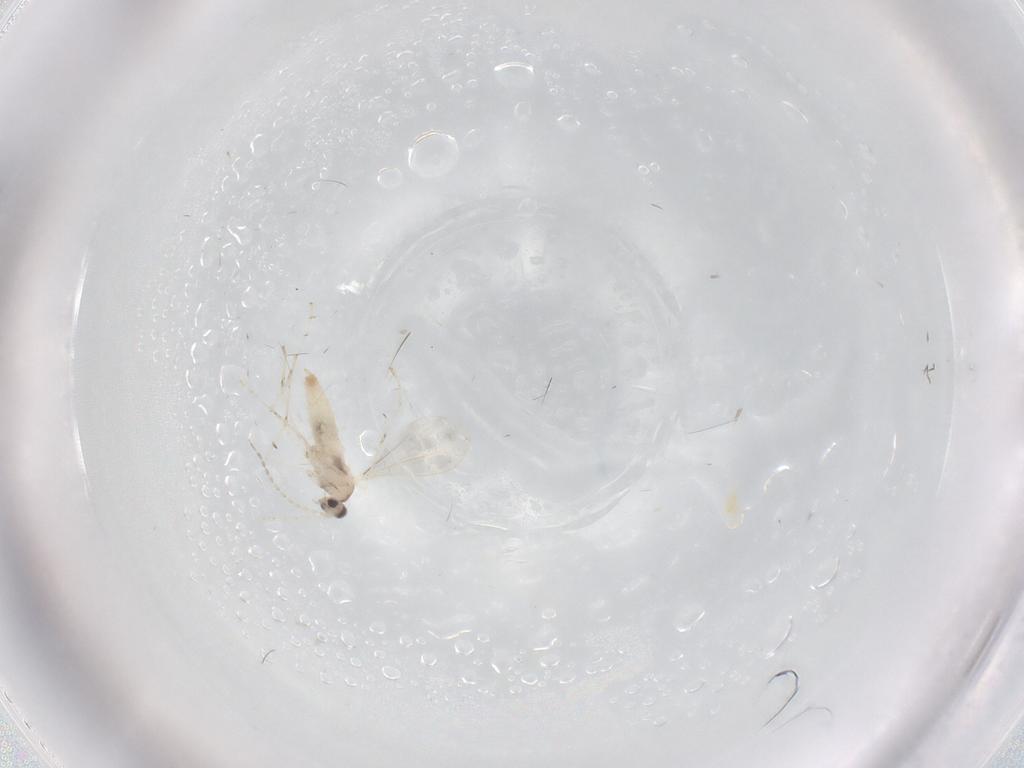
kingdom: Animalia
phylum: Arthropoda
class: Insecta
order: Diptera
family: Cecidomyiidae
